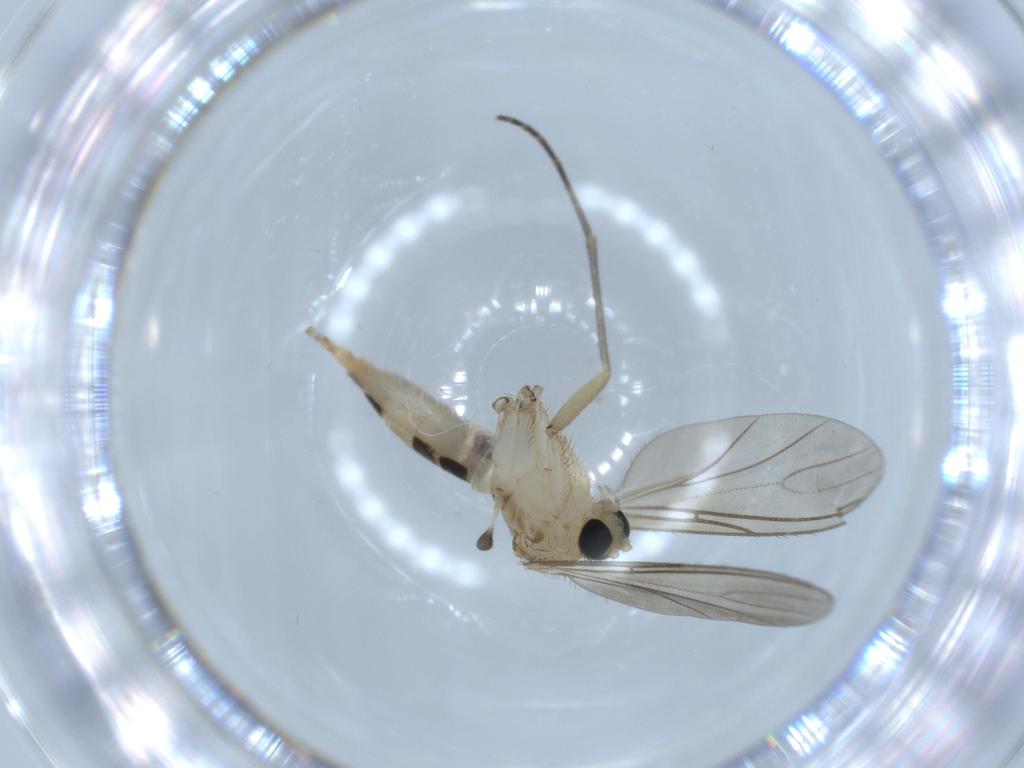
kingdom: Animalia
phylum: Arthropoda
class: Insecta
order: Diptera
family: Sciaridae
